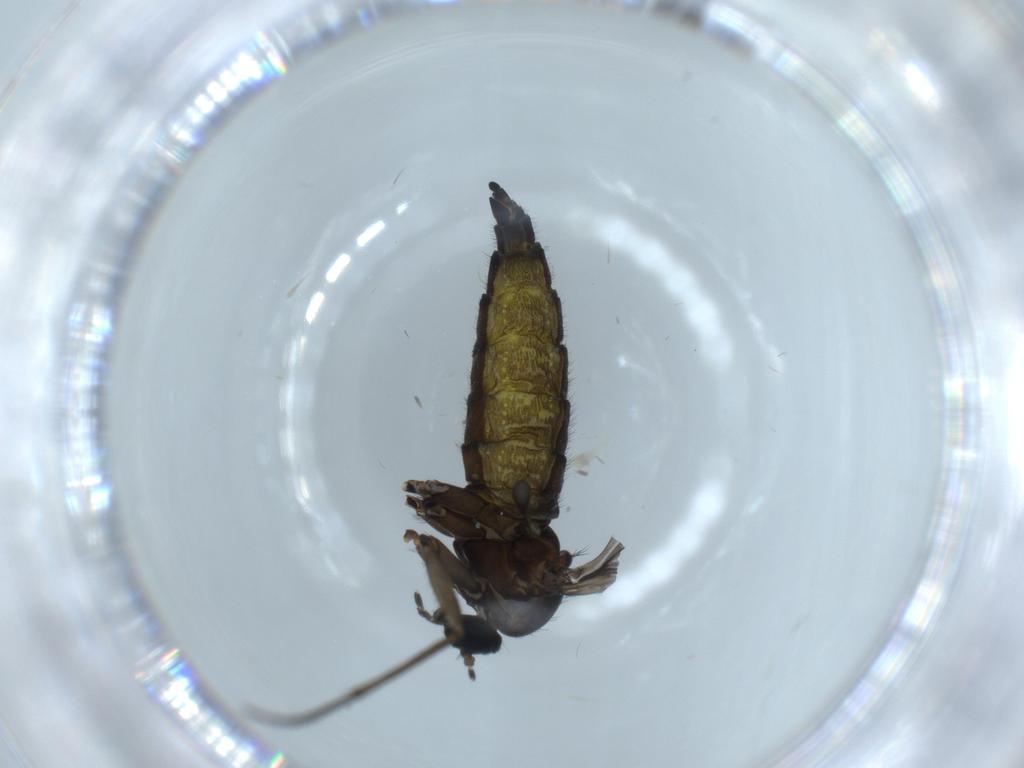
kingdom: Animalia
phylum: Arthropoda
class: Insecta
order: Diptera
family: Sciaridae
